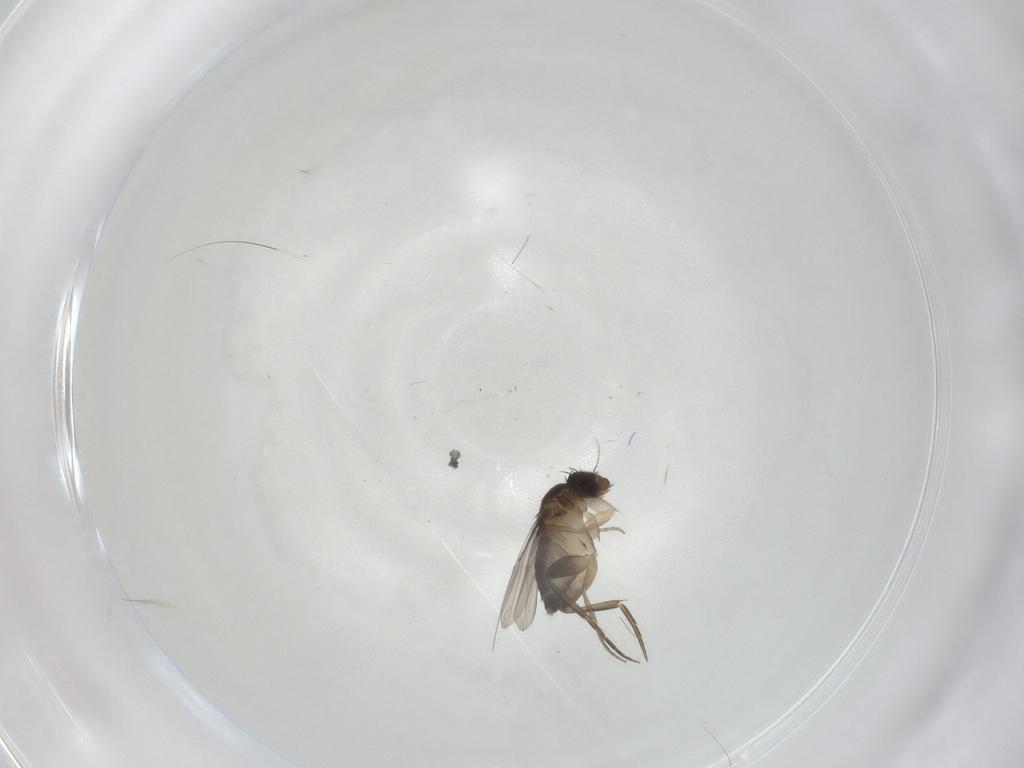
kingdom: Animalia
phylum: Arthropoda
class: Insecta
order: Diptera
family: Phoridae
